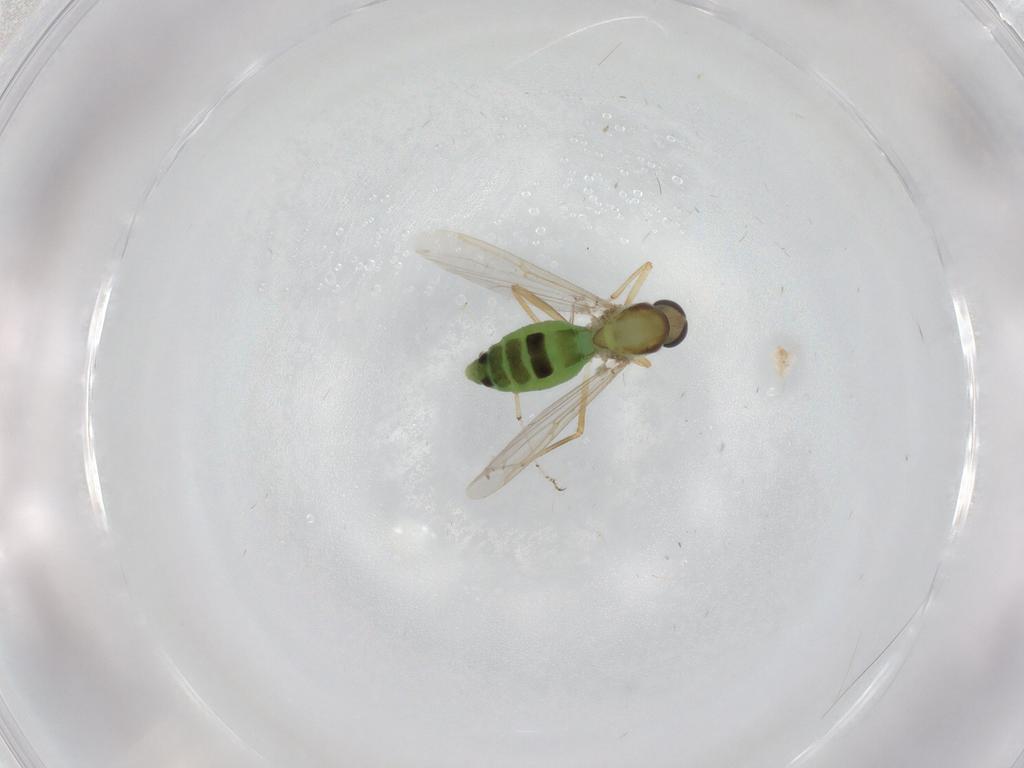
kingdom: Animalia
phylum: Arthropoda
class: Insecta
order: Diptera
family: Ceratopogonidae
